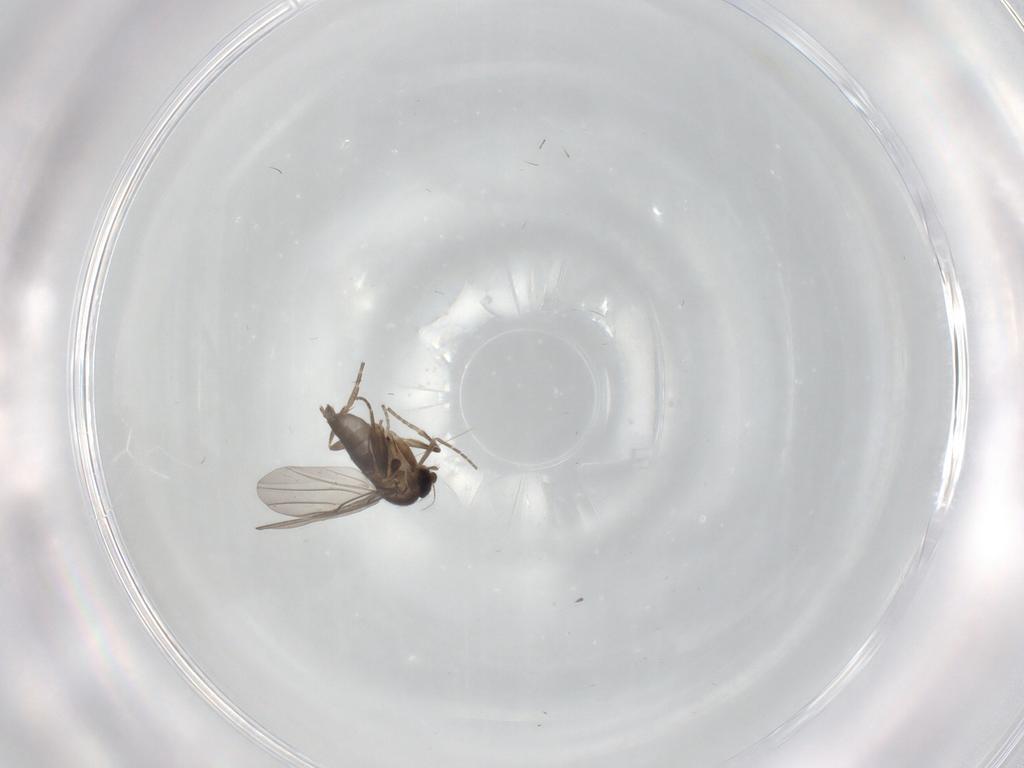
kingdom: Animalia
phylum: Arthropoda
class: Insecta
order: Diptera
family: Phoridae
